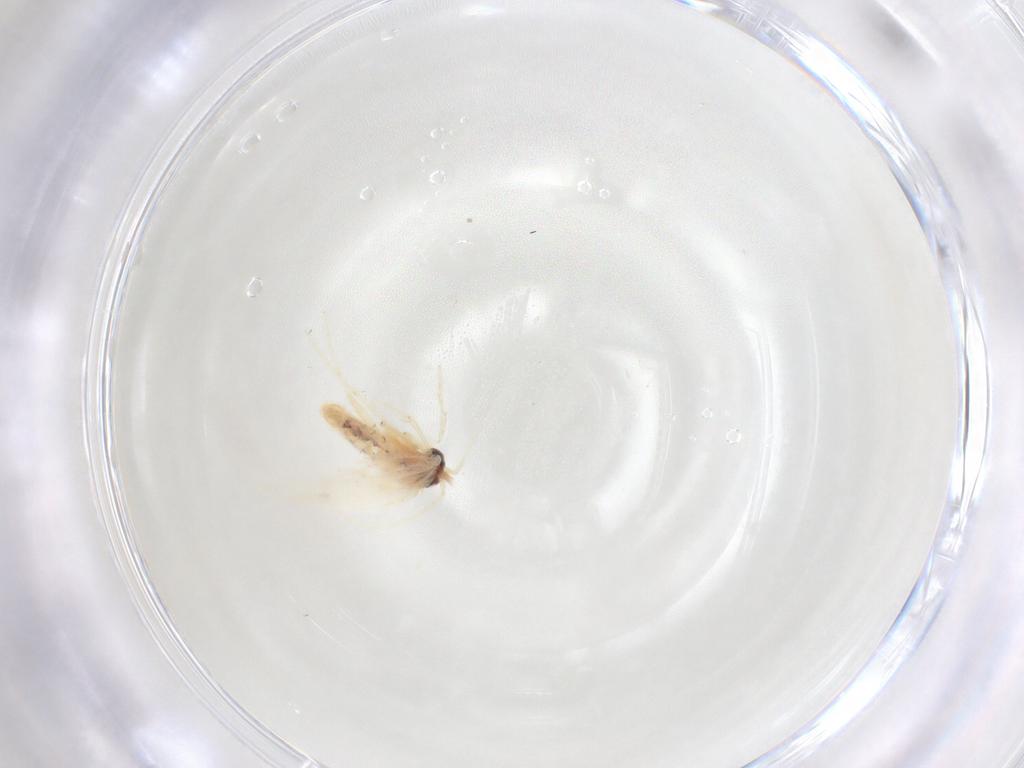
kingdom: Animalia
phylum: Arthropoda
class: Insecta
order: Lepidoptera
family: Nepticulidae
